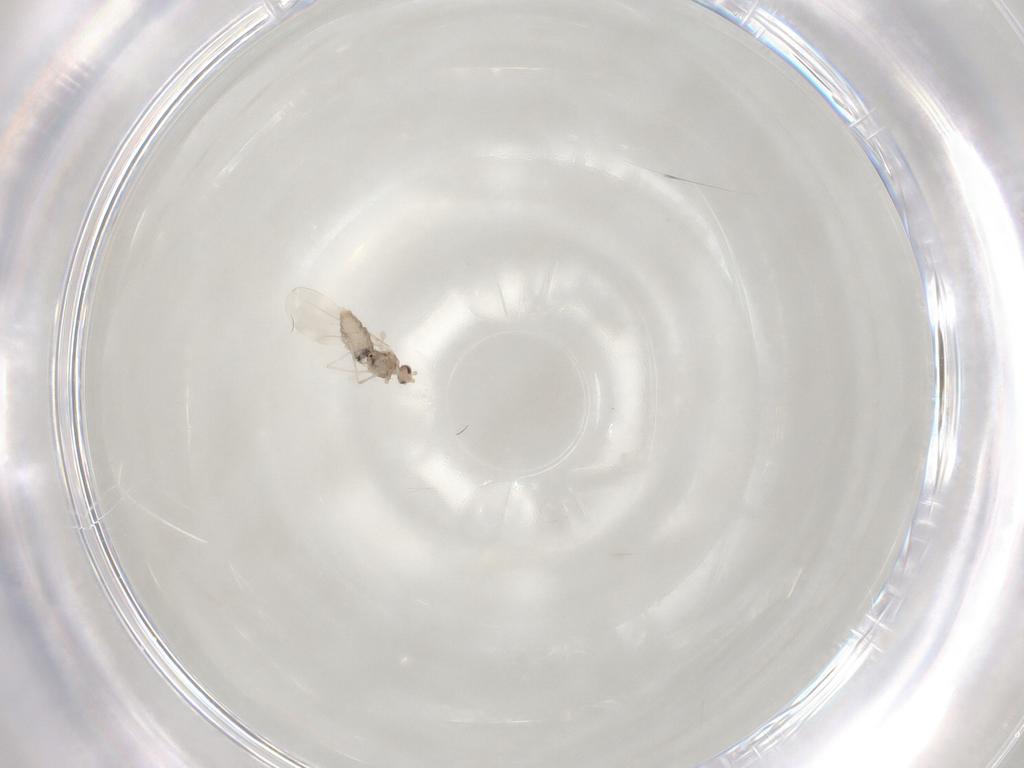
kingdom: Animalia
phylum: Arthropoda
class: Insecta
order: Diptera
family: Cecidomyiidae
